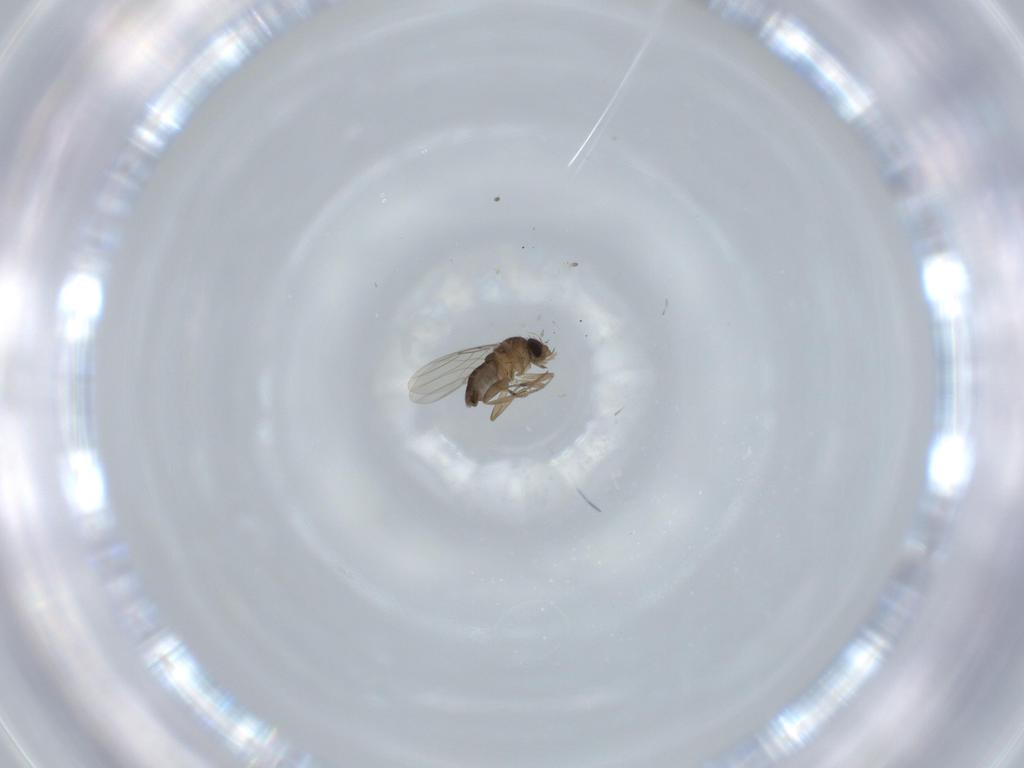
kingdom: Animalia
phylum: Arthropoda
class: Insecta
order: Diptera
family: Phoridae
